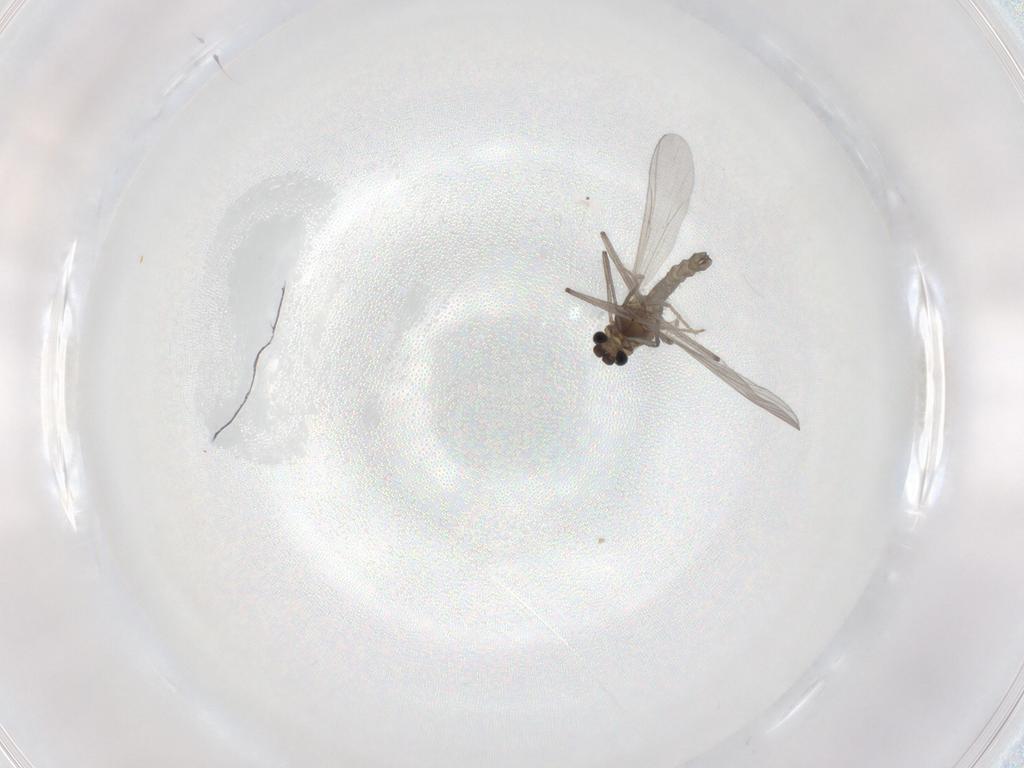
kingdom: Animalia
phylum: Arthropoda
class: Insecta
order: Diptera
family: Chironomidae
